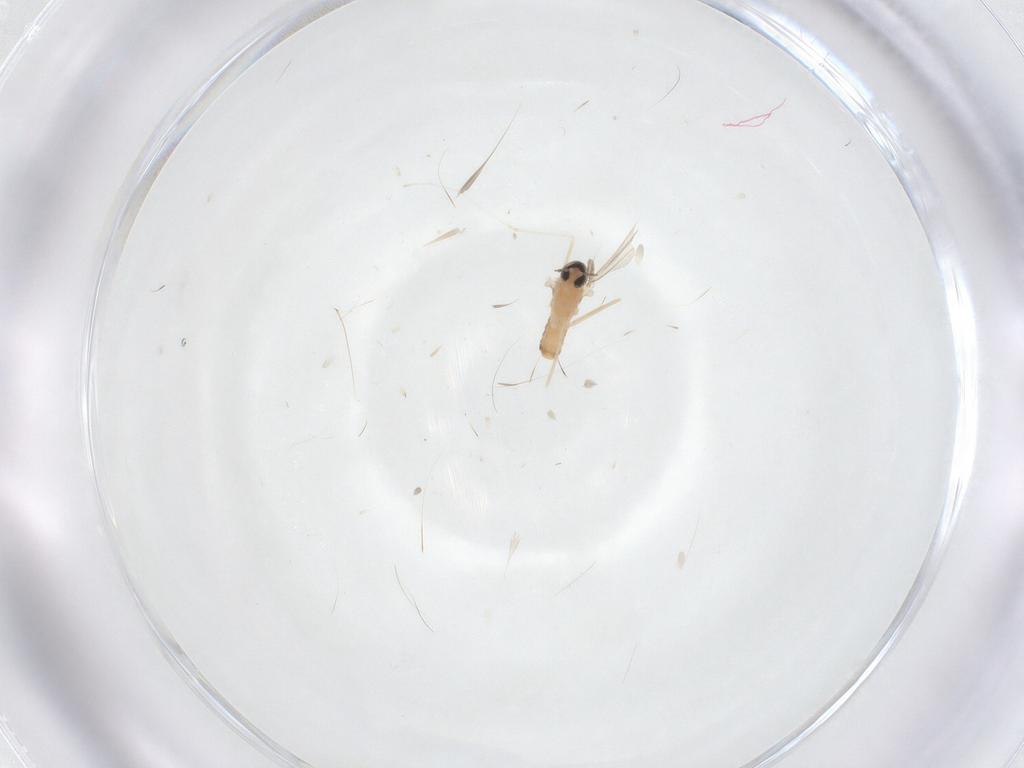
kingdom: Animalia
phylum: Arthropoda
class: Insecta
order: Diptera
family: Cecidomyiidae
